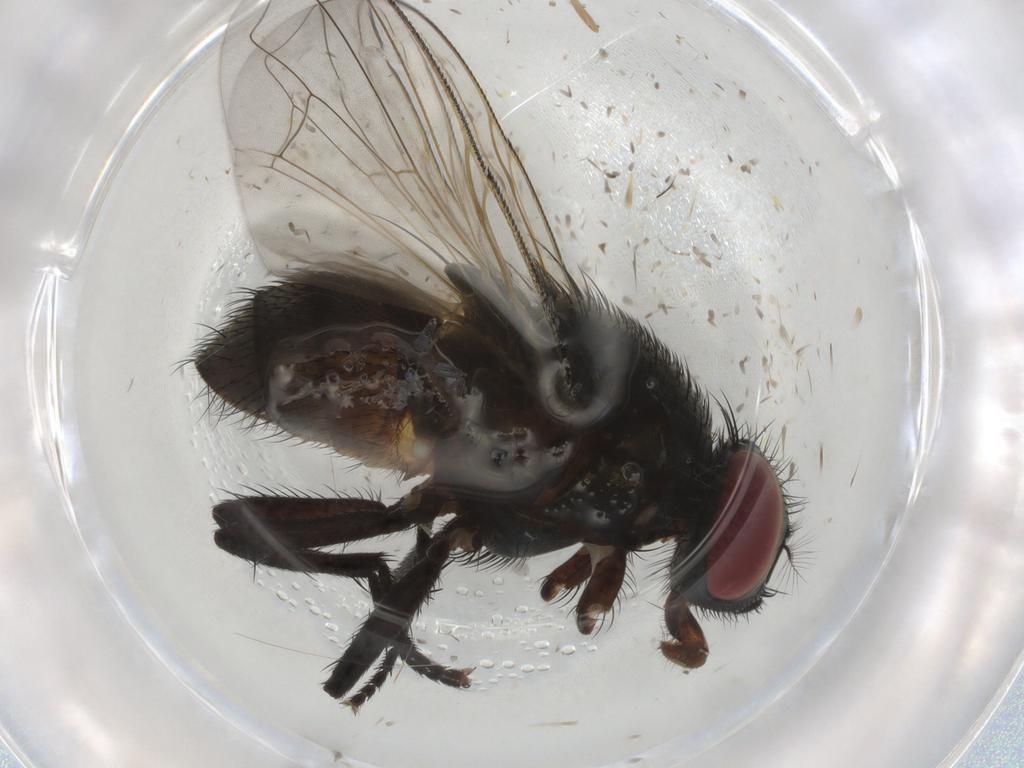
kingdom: Animalia
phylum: Arthropoda
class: Insecta
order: Diptera
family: Muscidae
